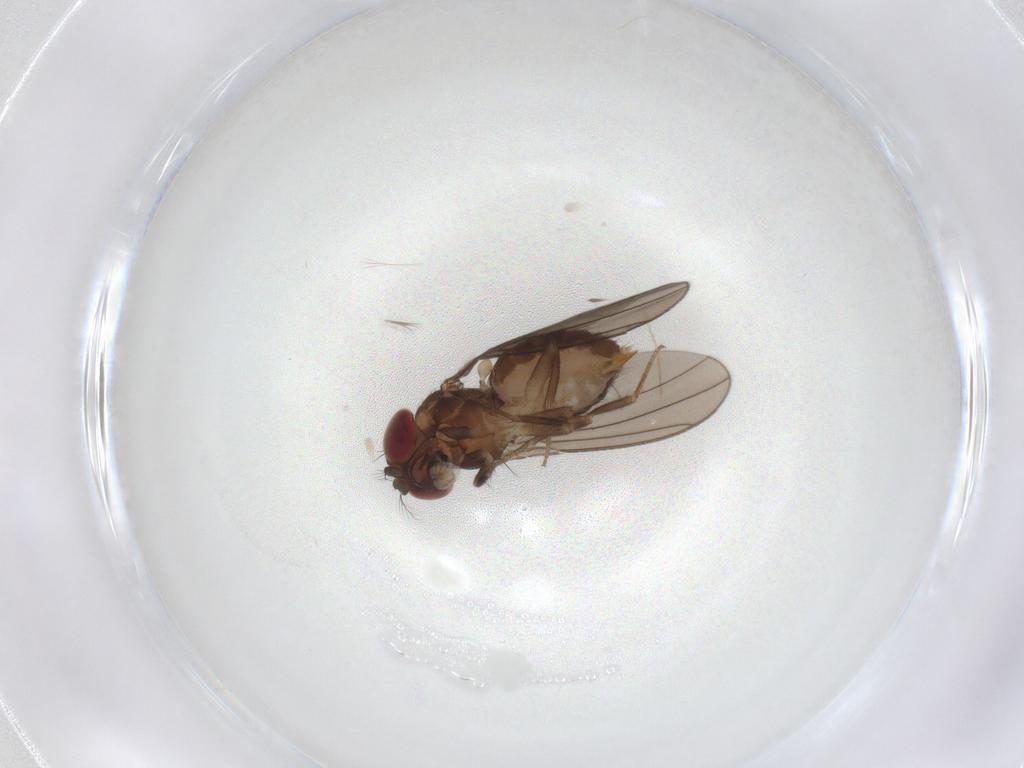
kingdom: Animalia
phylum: Arthropoda
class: Insecta
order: Diptera
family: Drosophilidae
